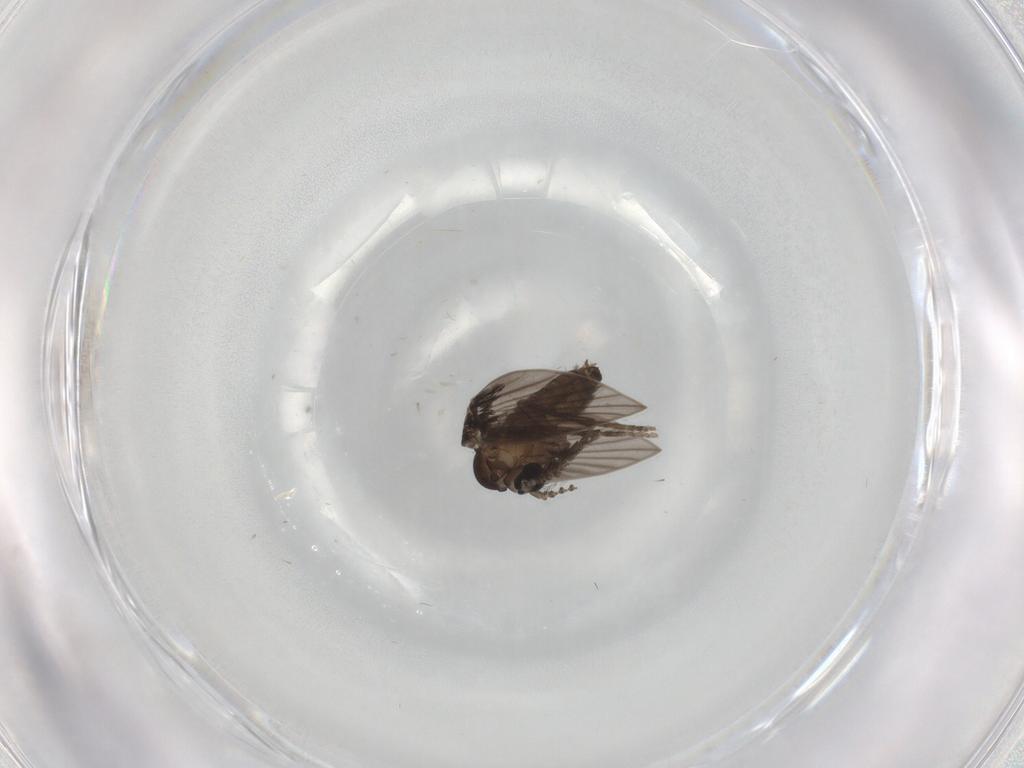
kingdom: Animalia
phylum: Arthropoda
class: Insecta
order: Diptera
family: Psychodidae
